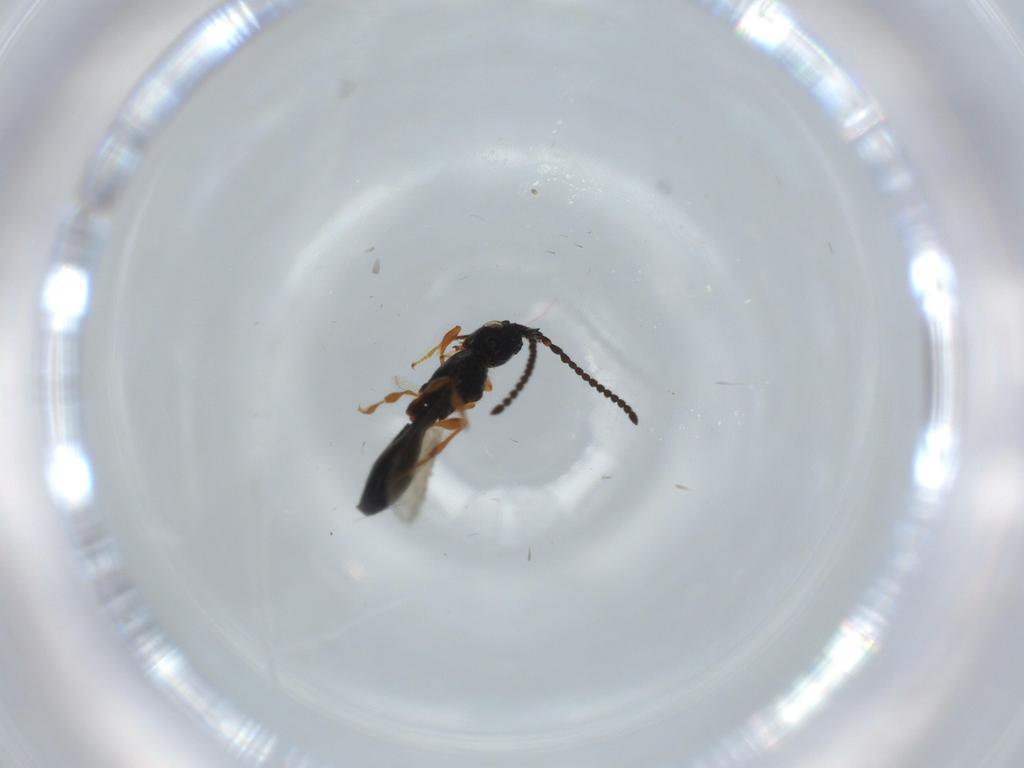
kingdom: Animalia
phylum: Arthropoda
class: Insecta
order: Hymenoptera
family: Diapriidae
